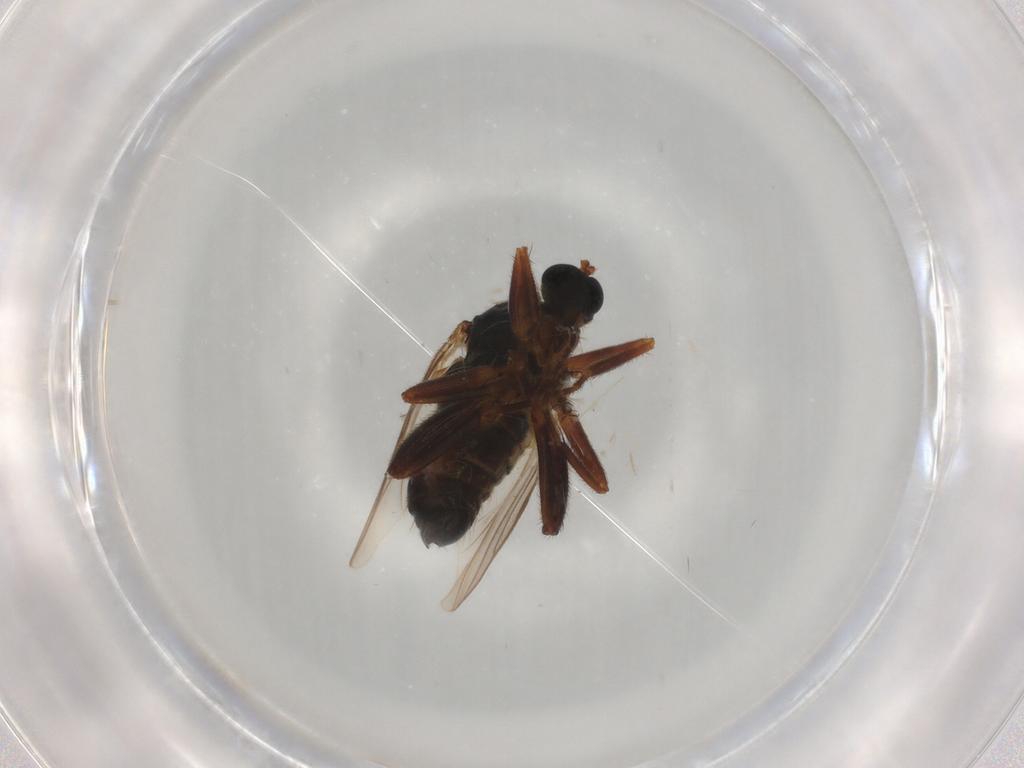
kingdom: Animalia
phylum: Arthropoda
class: Insecta
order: Diptera
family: Hybotidae
